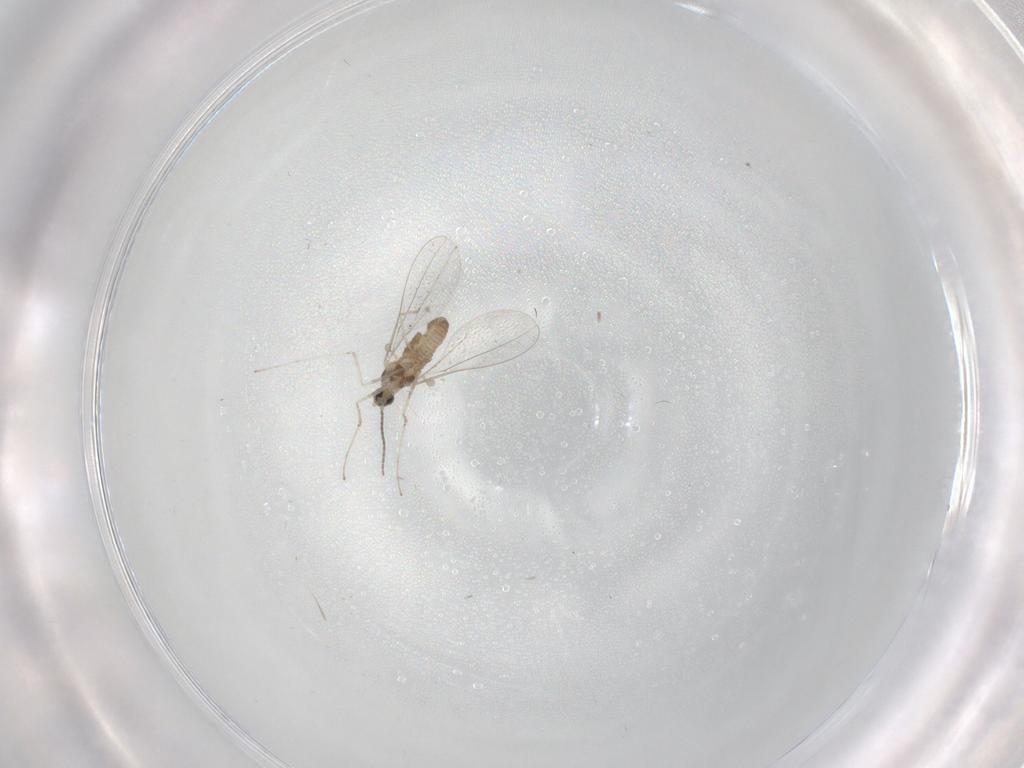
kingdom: Animalia
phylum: Arthropoda
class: Insecta
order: Diptera
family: Cecidomyiidae
